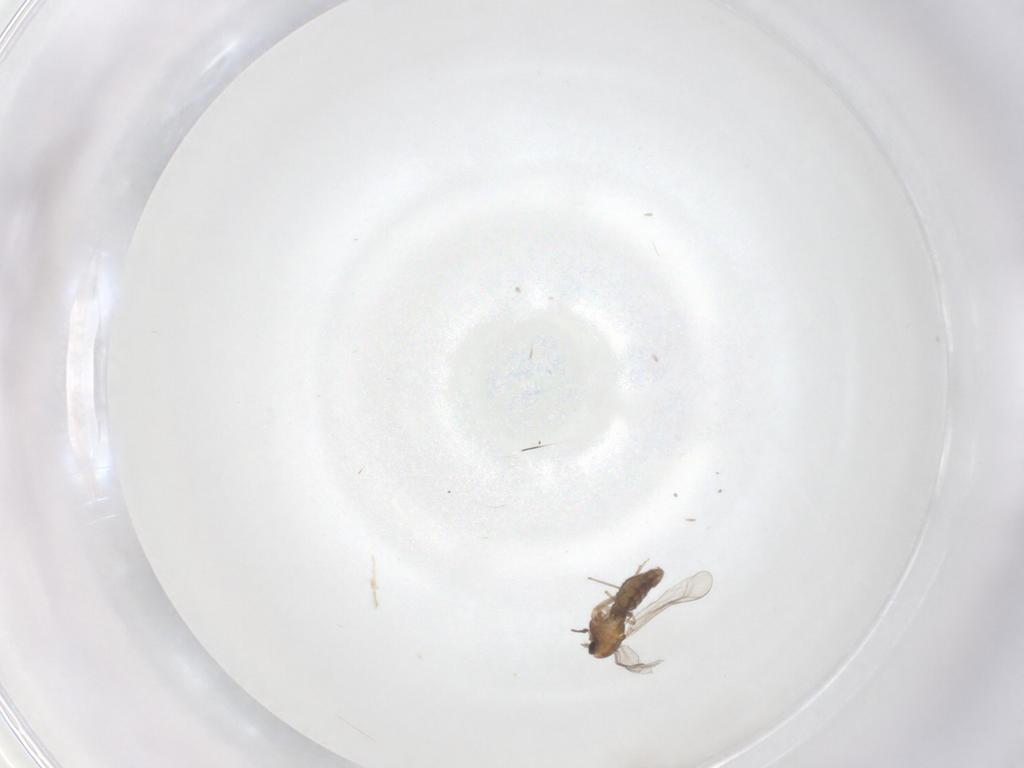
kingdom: Animalia
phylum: Arthropoda
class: Insecta
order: Diptera
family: Chironomidae
